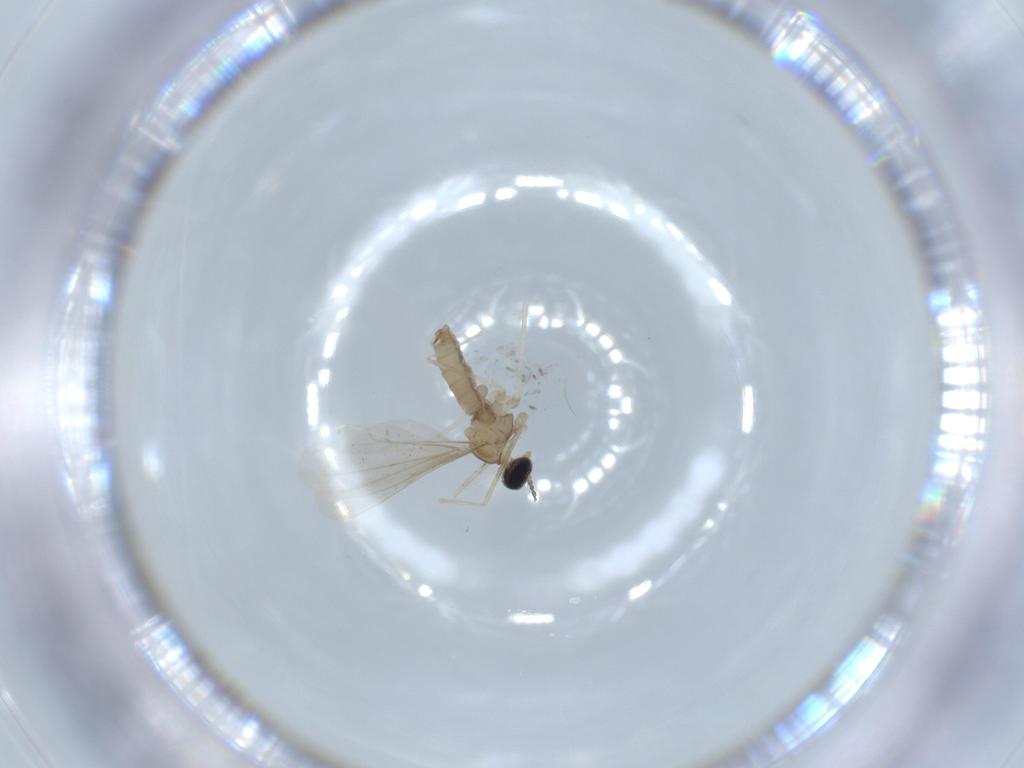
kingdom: Animalia
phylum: Arthropoda
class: Insecta
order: Diptera
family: Cecidomyiidae
